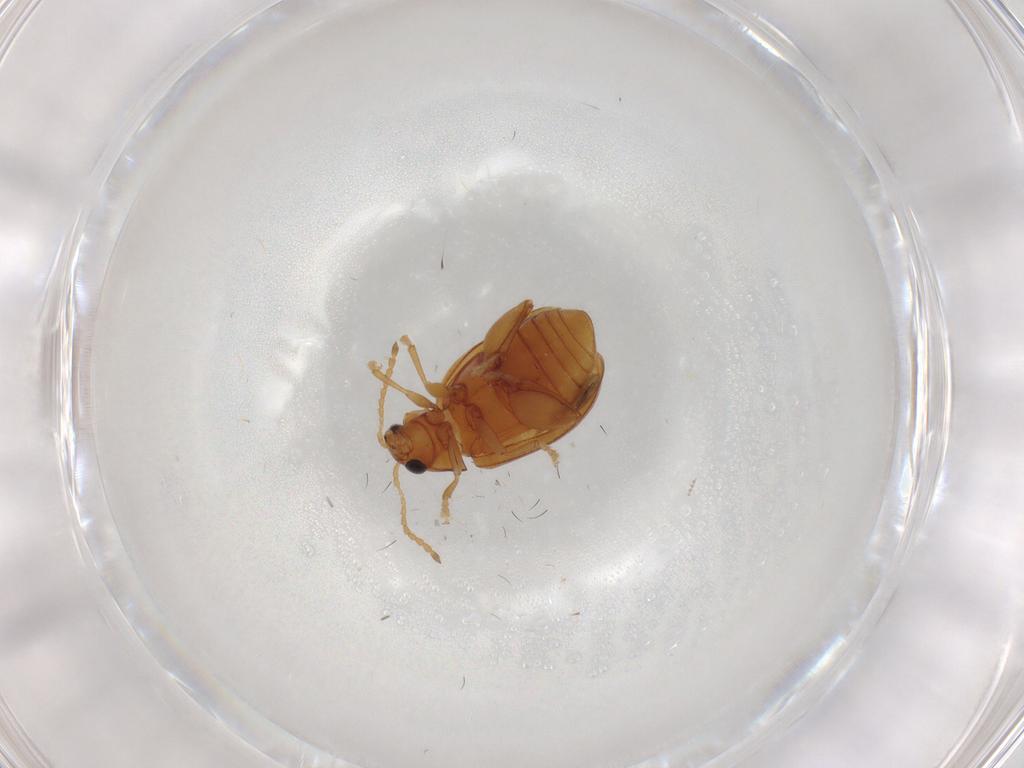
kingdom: Animalia
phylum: Arthropoda
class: Insecta
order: Coleoptera
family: Chrysomelidae
